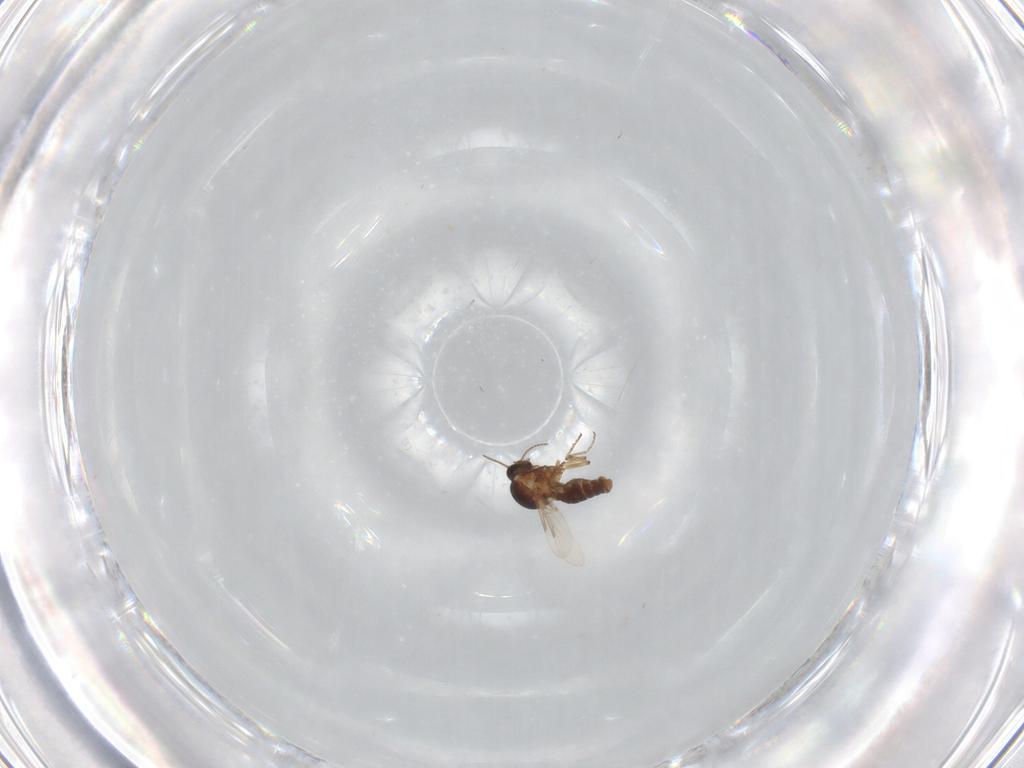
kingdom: Animalia
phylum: Arthropoda
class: Insecta
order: Diptera
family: Ceratopogonidae
